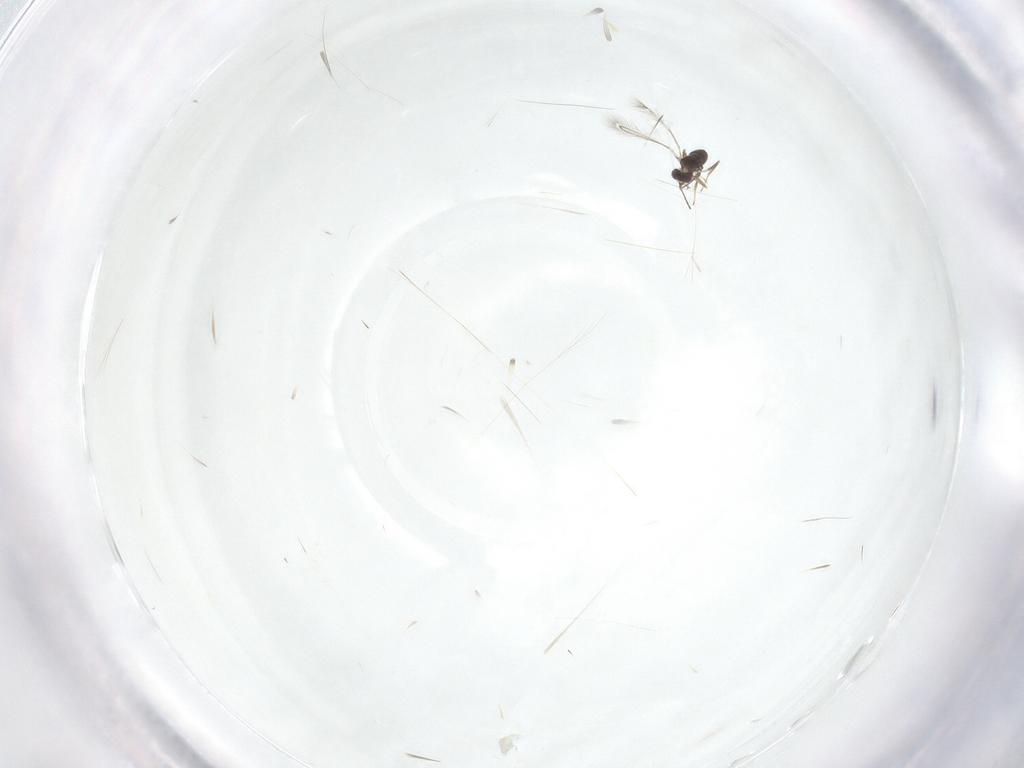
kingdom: Animalia
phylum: Arthropoda
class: Insecta
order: Hymenoptera
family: Mymaridae
